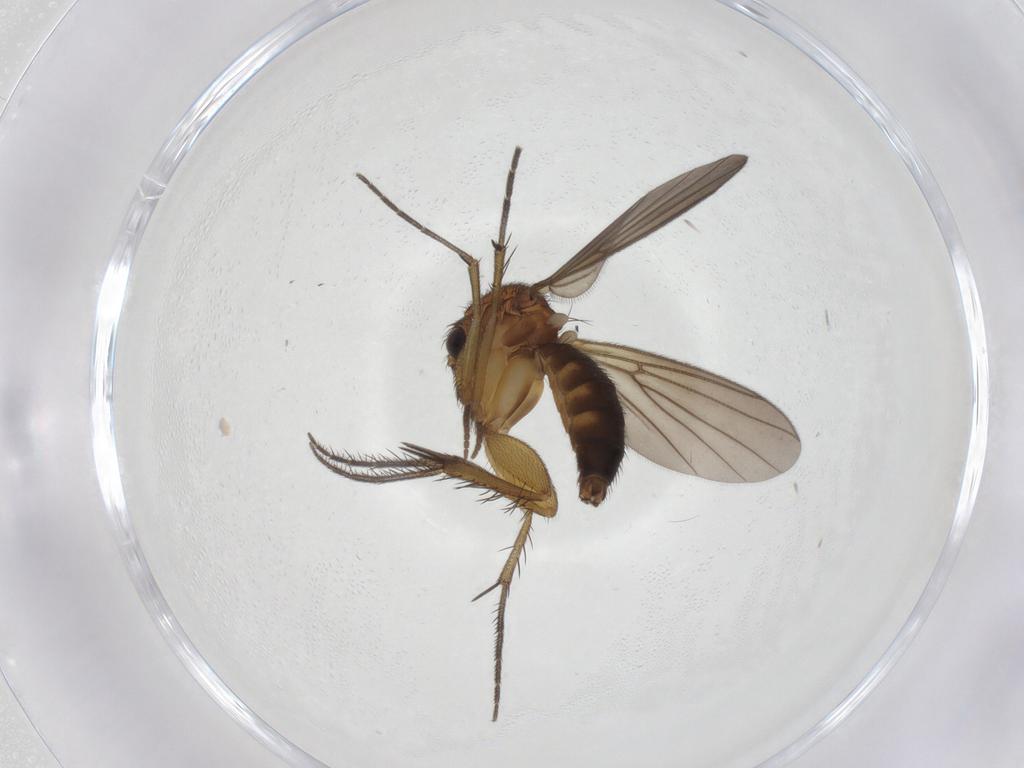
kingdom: Animalia
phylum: Arthropoda
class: Insecta
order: Diptera
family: Mycetophilidae
